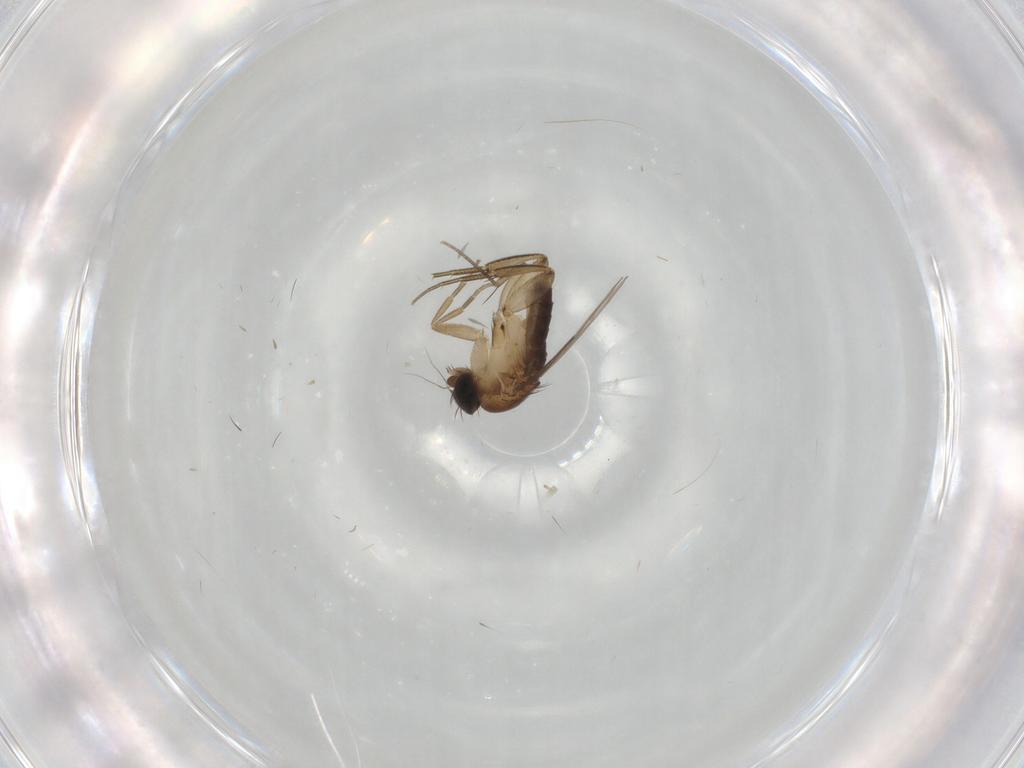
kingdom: Animalia
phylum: Arthropoda
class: Insecta
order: Diptera
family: Phoridae
